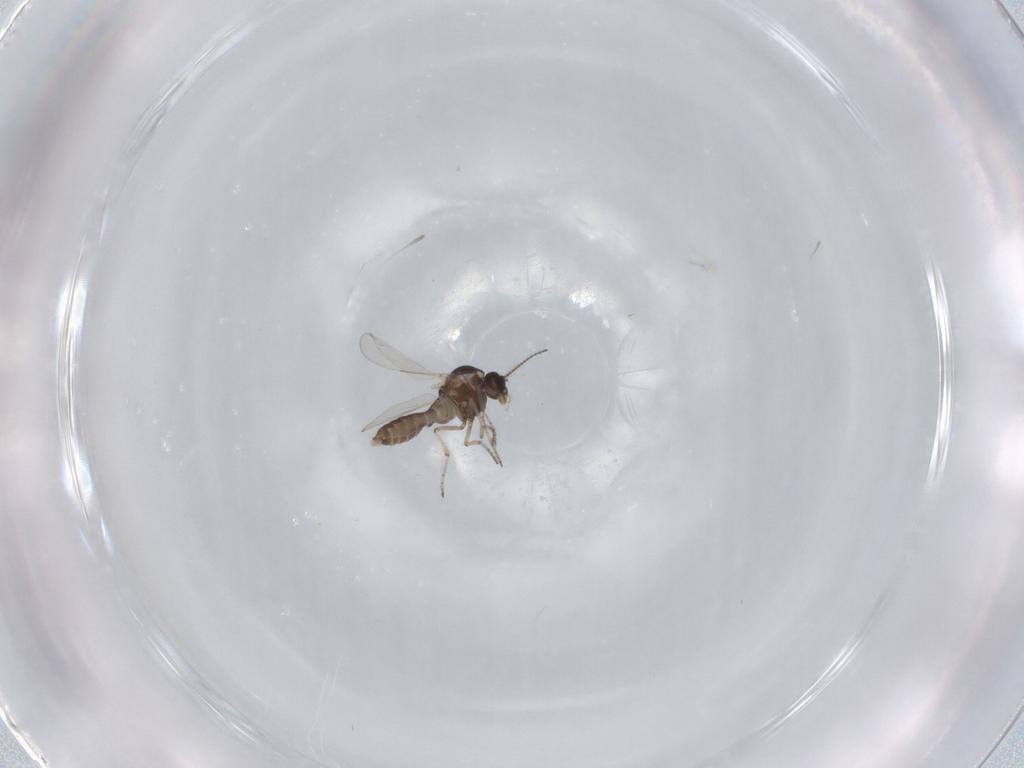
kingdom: Animalia
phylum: Arthropoda
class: Insecta
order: Diptera
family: Ceratopogonidae
